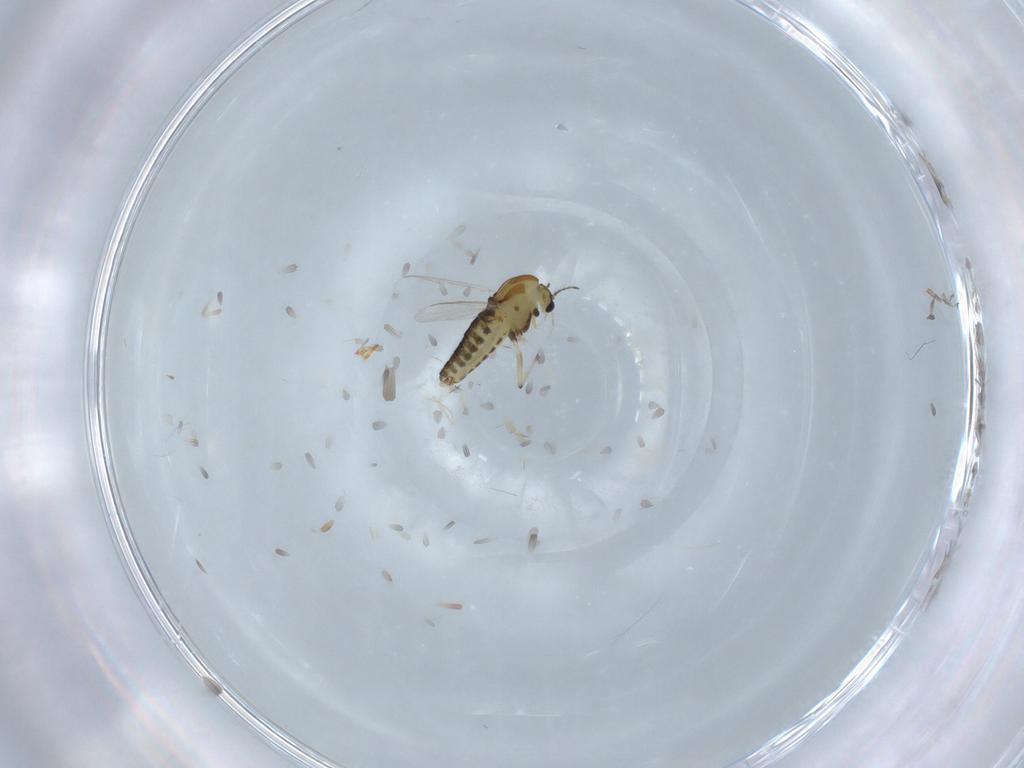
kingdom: Animalia
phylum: Arthropoda
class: Insecta
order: Diptera
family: Chironomidae
